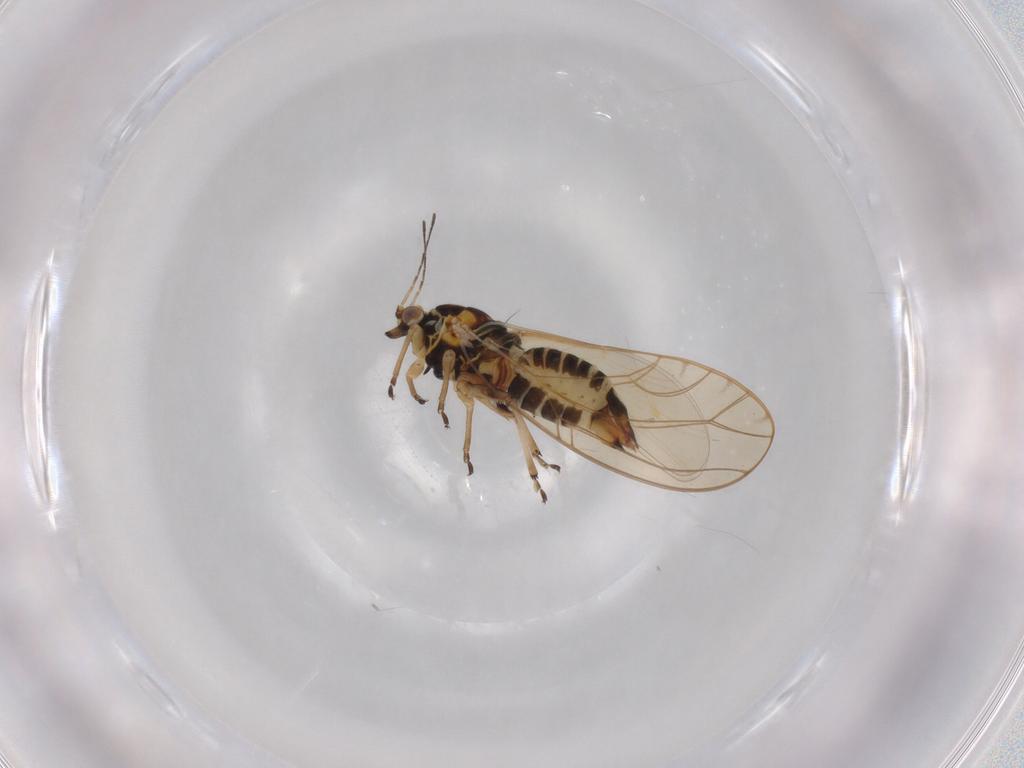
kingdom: Animalia
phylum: Arthropoda
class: Insecta
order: Hemiptera
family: Triozidae
